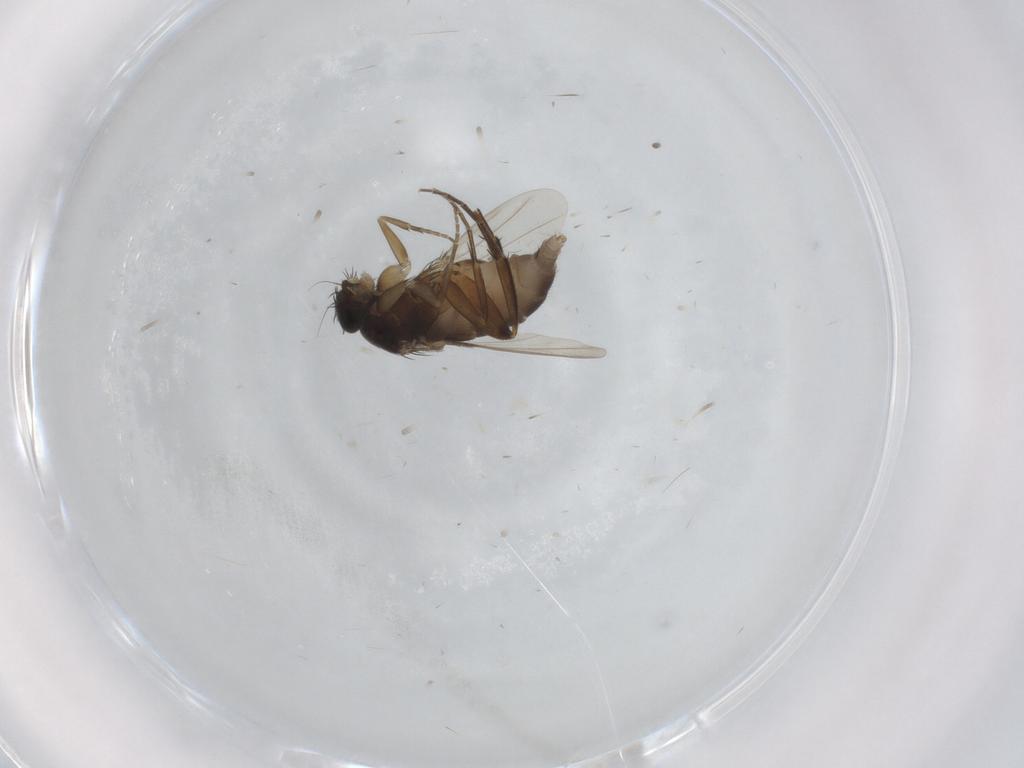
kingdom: Animalia
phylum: Arthropoda
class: Insecta
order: Diptera
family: Phoridae
